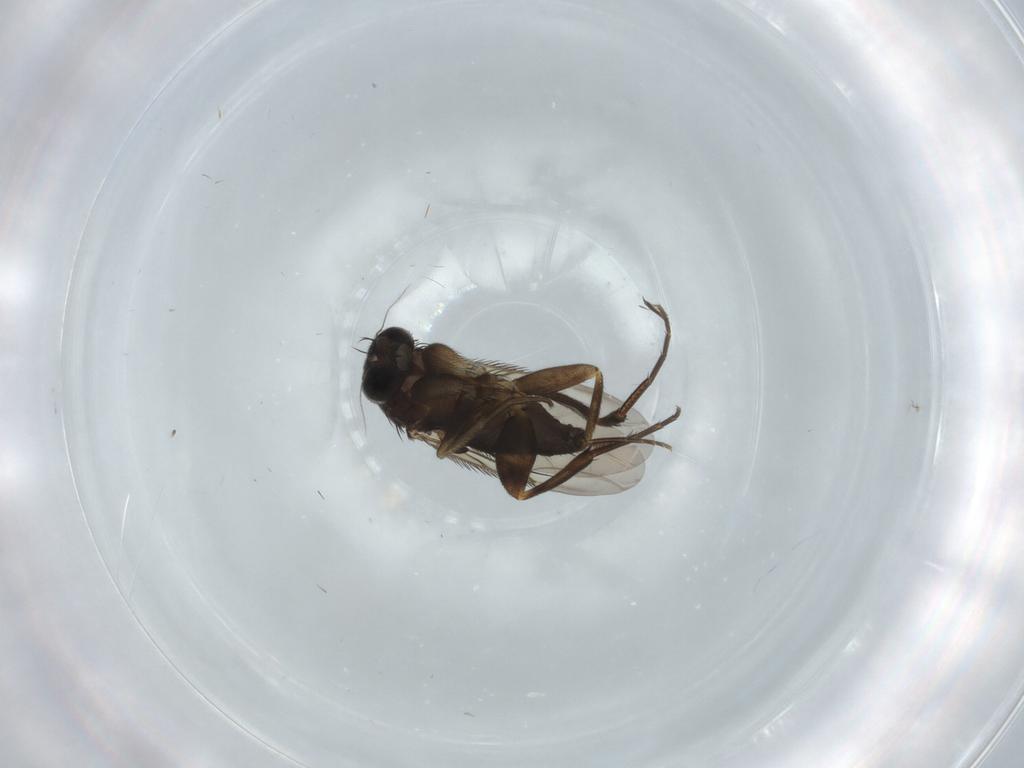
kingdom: Animalia
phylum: Arthropoda
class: Insecta
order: Diptera
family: Phoridae
